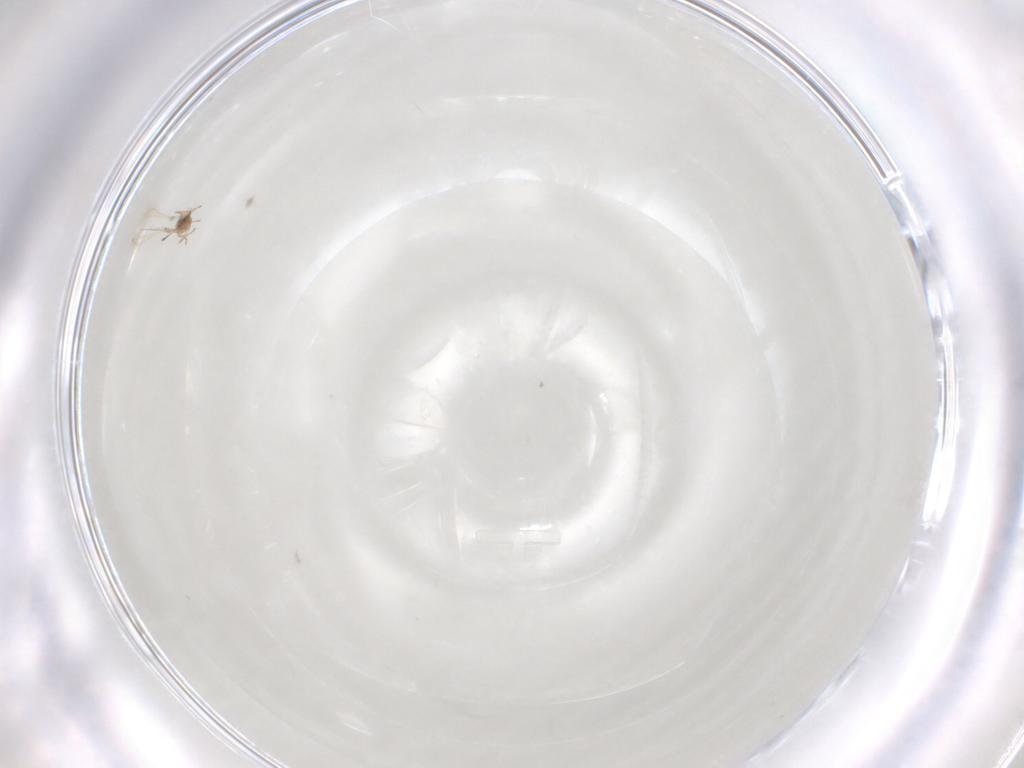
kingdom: Animalia
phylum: Arthropoda
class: Insecta
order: Hymenoptera
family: Mymaridae
